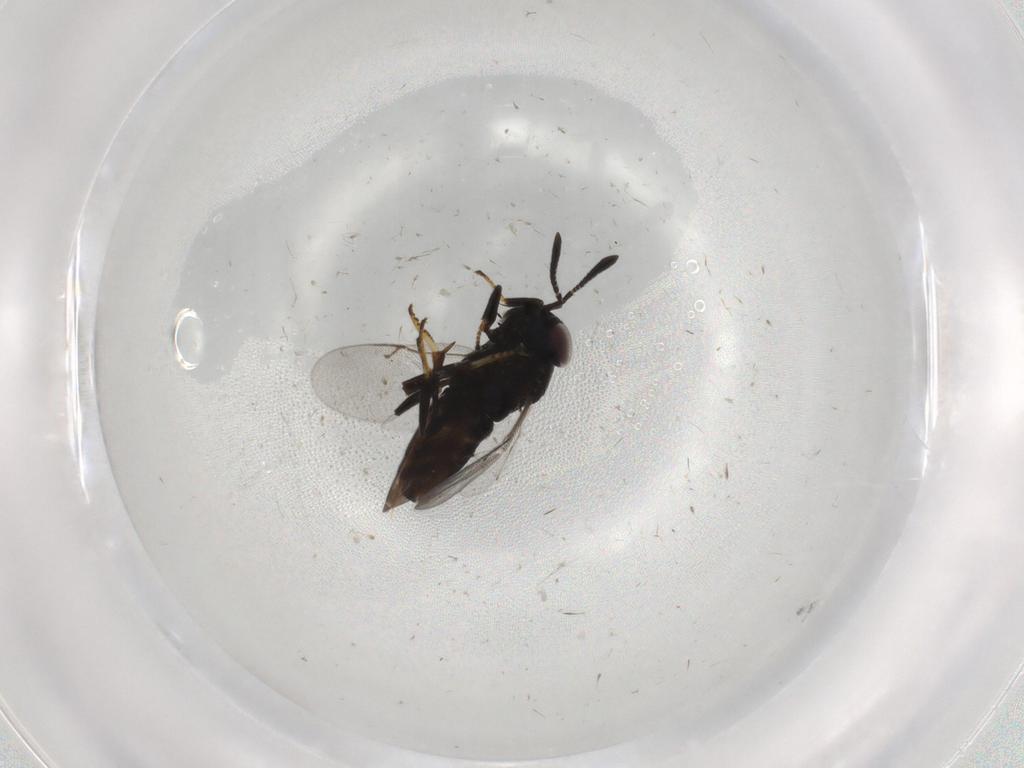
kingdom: Animalia
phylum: Arthropoda
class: Insecta
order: Hymenoptera
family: Encyrtidae
